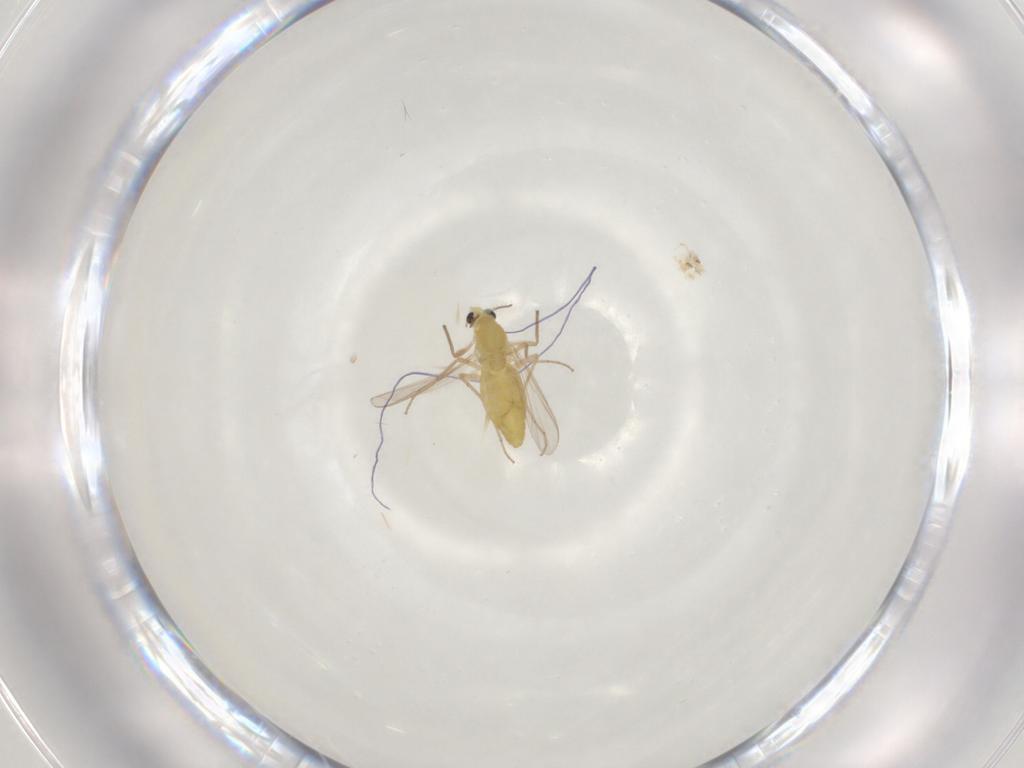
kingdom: Animalia
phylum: Arthropoda
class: Insecta
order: Diptera
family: Chironomidae
